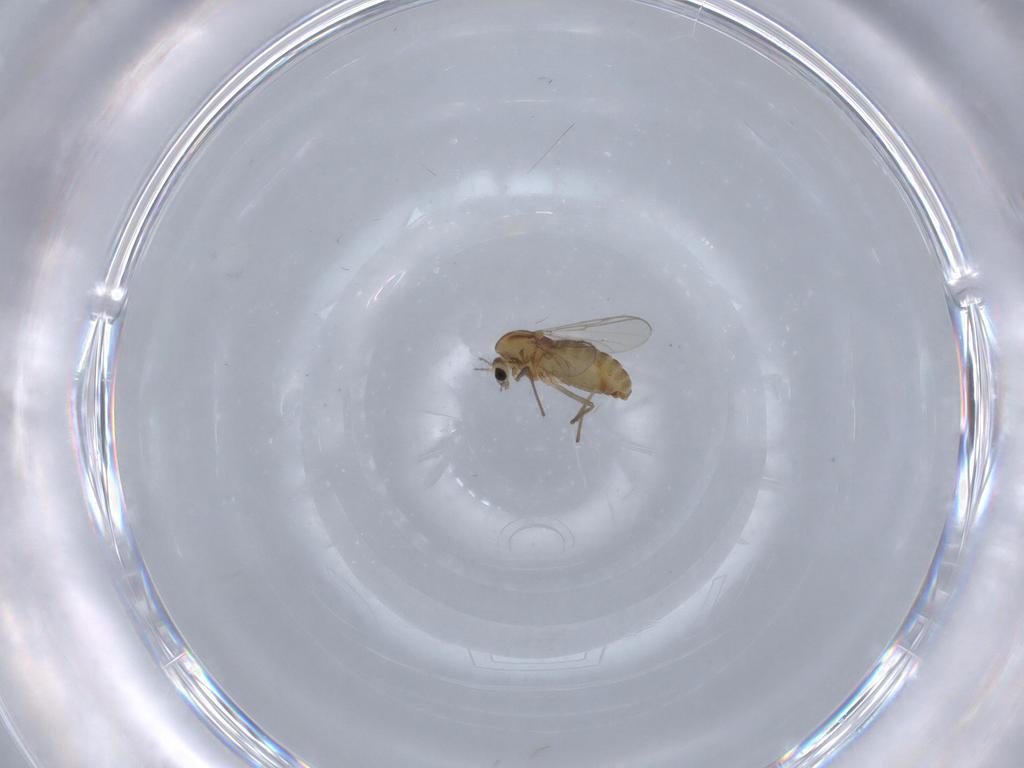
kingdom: Animalia
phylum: Arthropoda
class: Insecta
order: Diptera
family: Chironomidae
